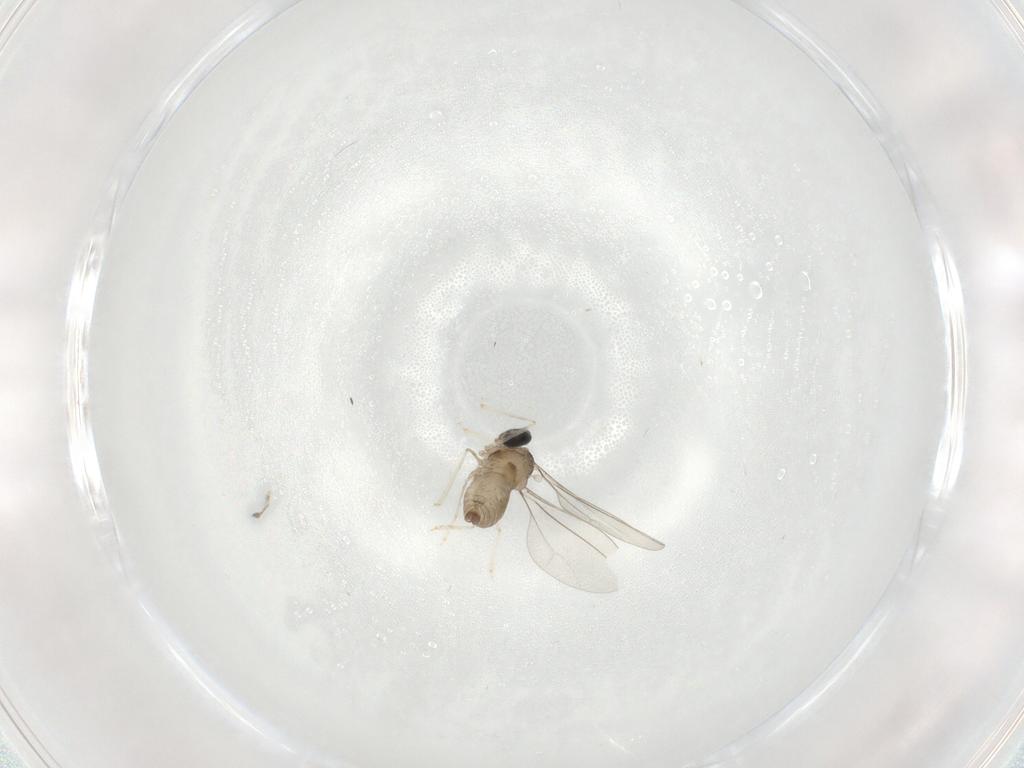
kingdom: Animalia
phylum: Arthropoda
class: Insecta
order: Diptera
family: Cecidomyiidae
